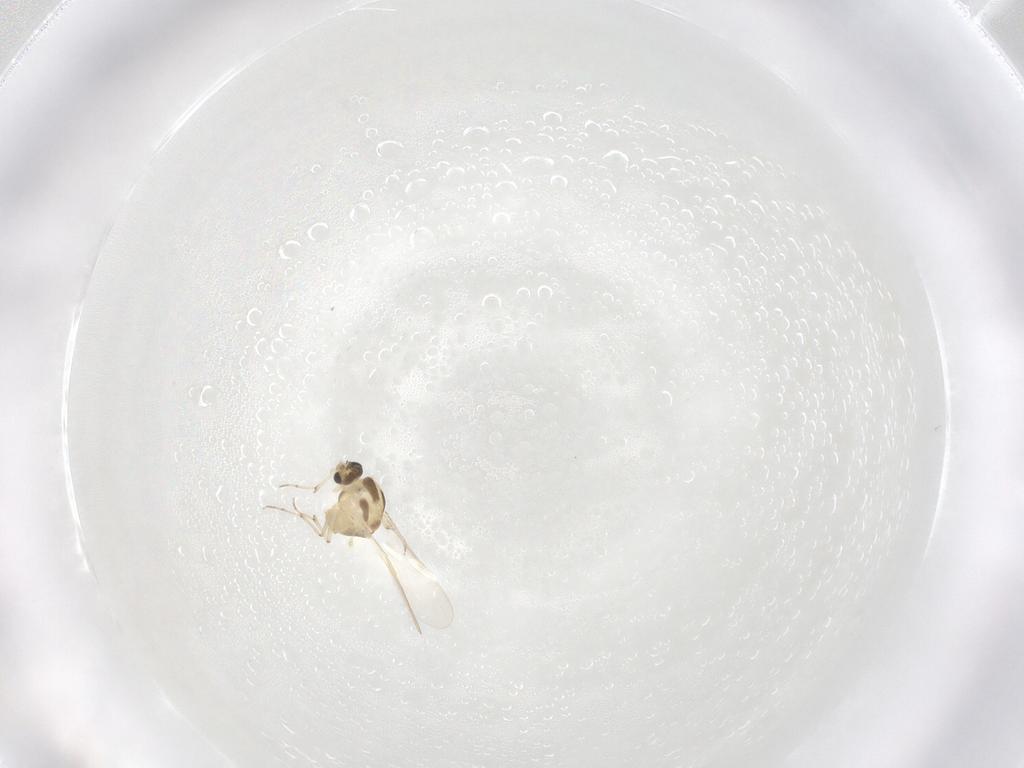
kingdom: Animalia
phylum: Arthropoda
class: Insecta
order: Diptera
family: Chironomidae
